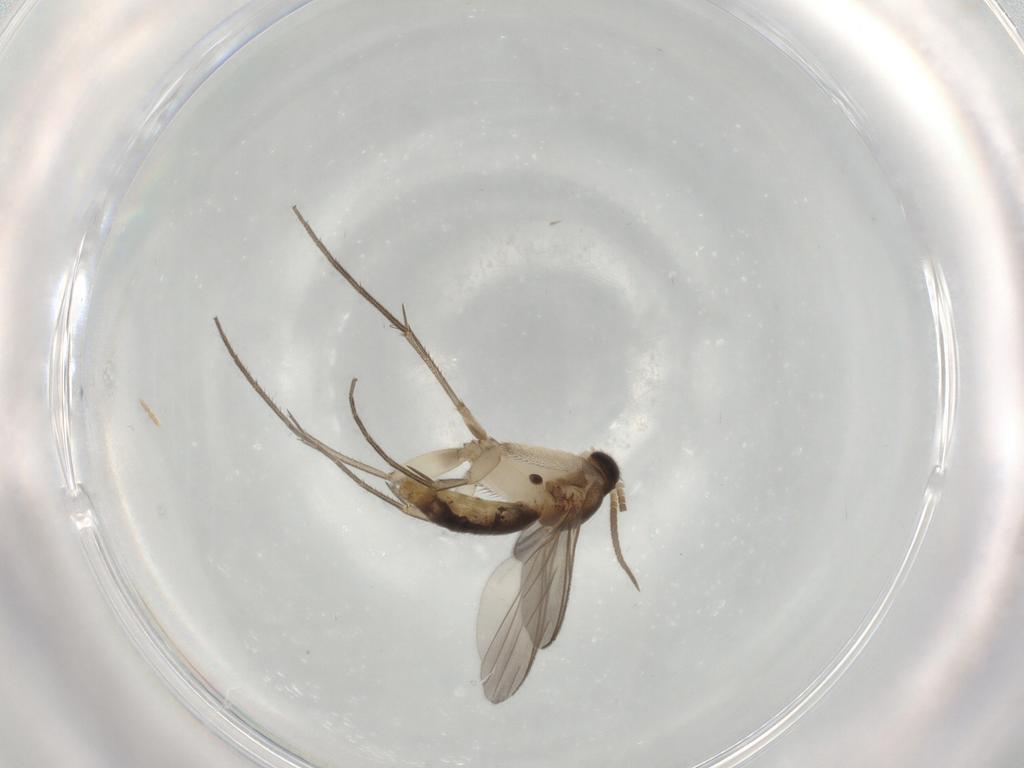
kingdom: Animalia
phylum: Arthropoda
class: Insecta
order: Diptera
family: Mycetophilidae
